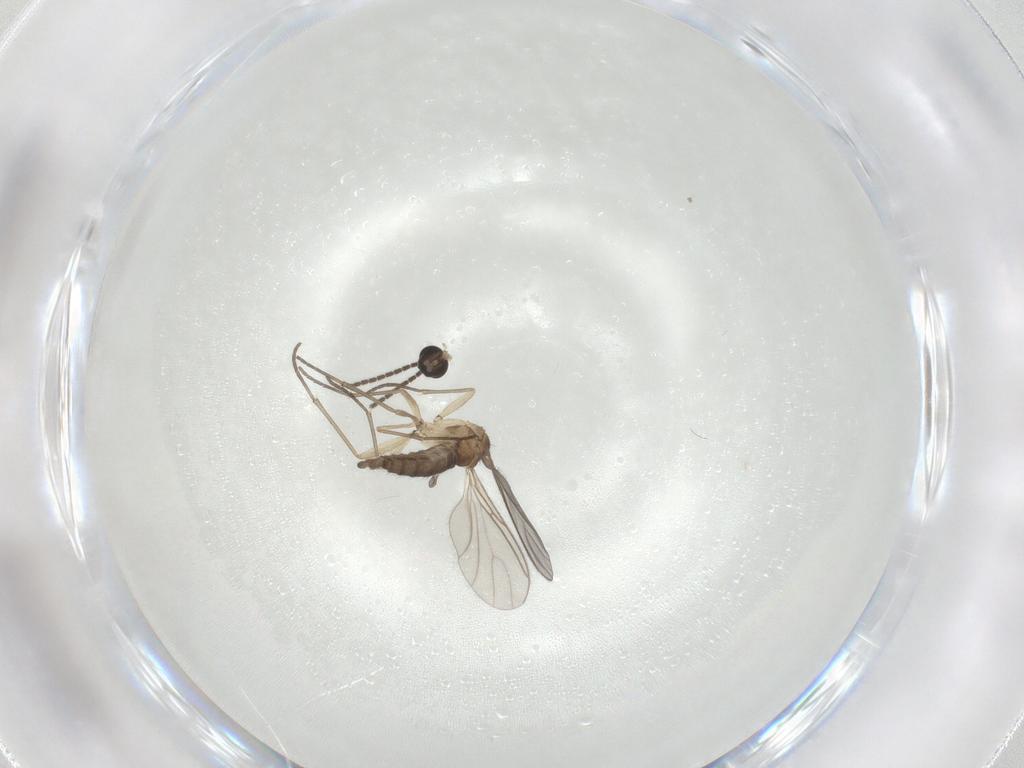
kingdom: Animalia
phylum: Arthropoda
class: Insecta
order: Diptera
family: Sciaridae
